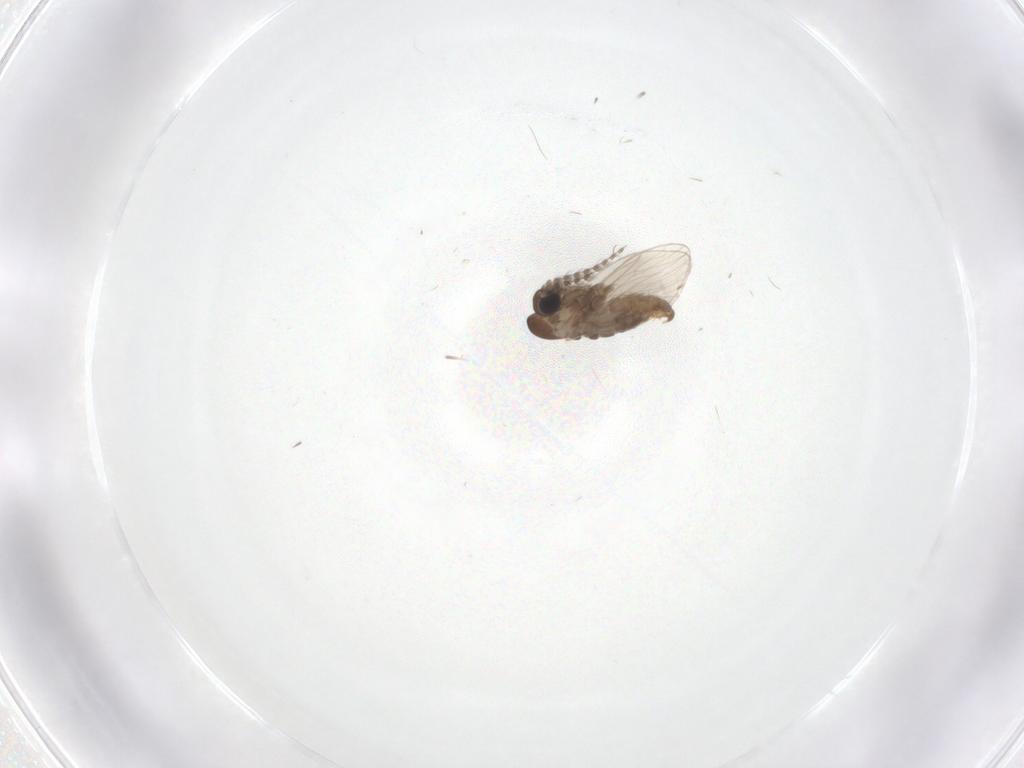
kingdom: Animalia
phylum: Arthropoda
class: Insecta
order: Diptera
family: Psychodidae
